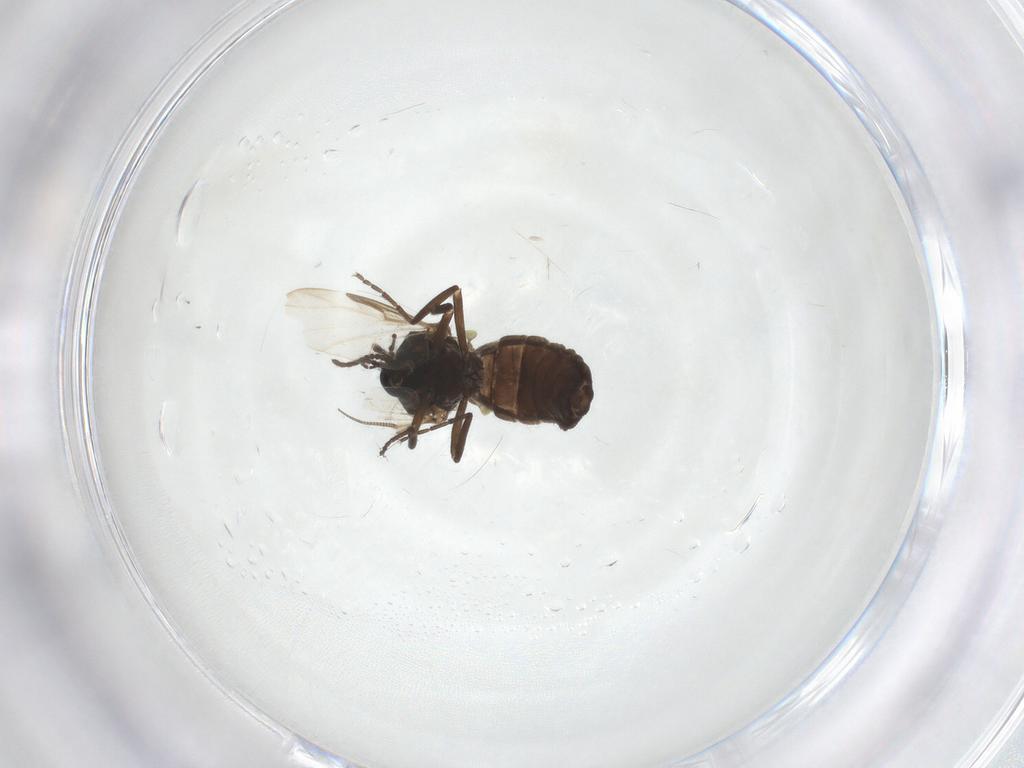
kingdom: Animalia
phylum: Arthropoda
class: Insecta
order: Diptera
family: Ceratopogonidae
